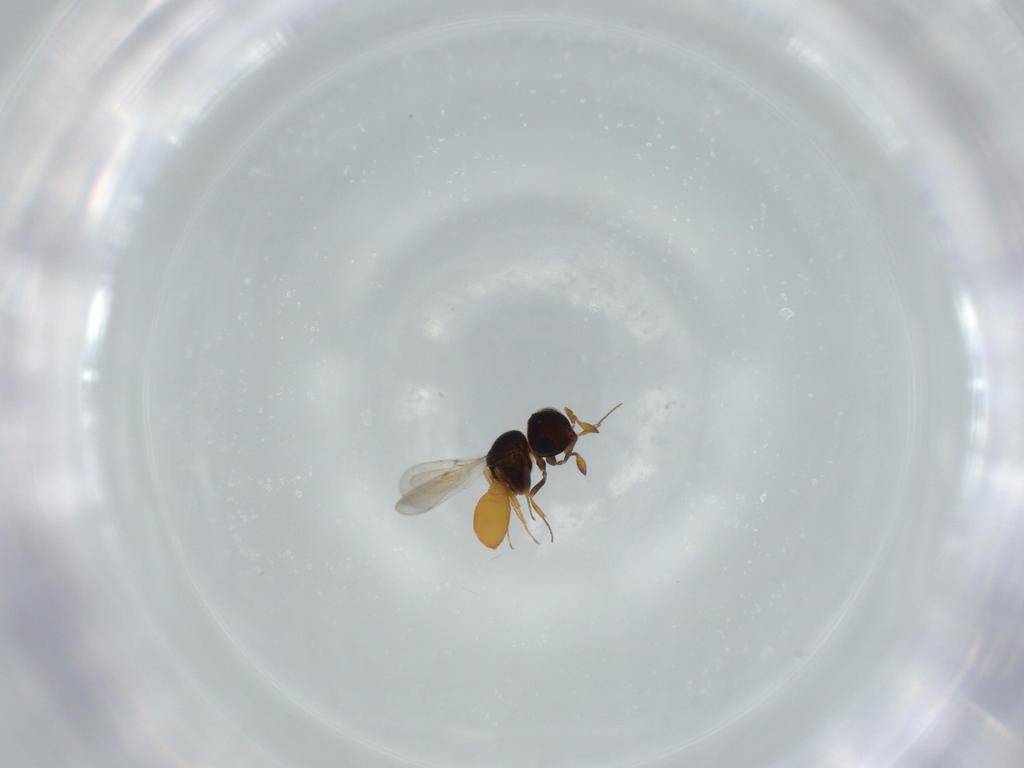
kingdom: Animalia
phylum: Arthropoda
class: Insecta
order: Hymenoptera
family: Scelionidae
